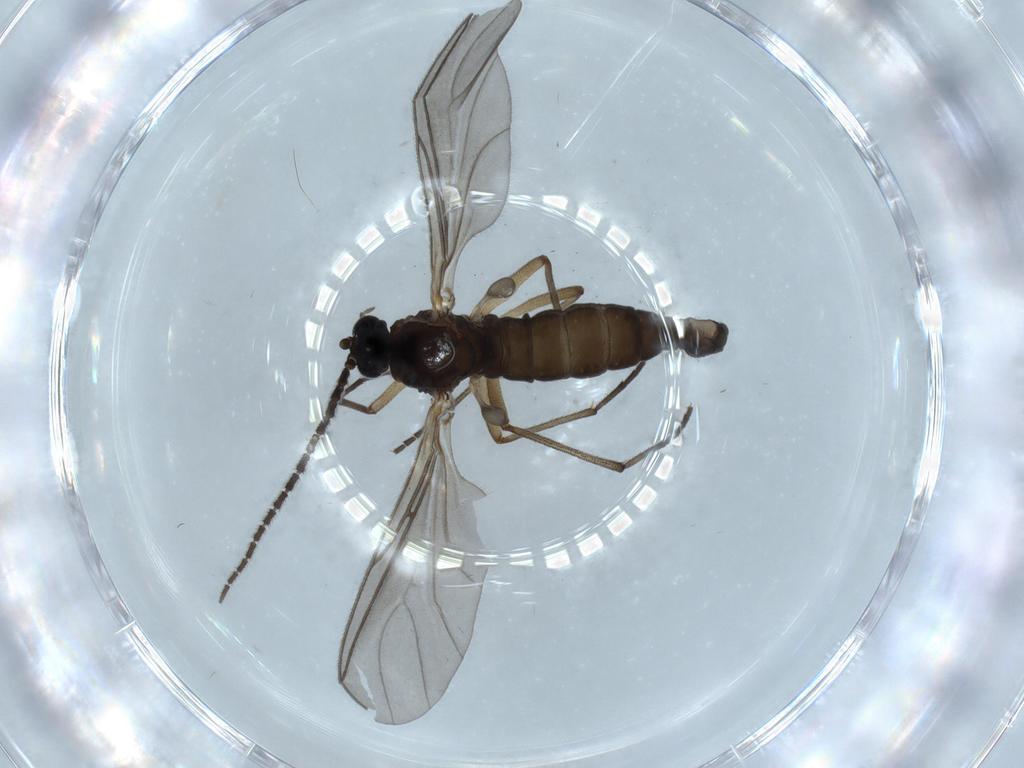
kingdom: Animalia
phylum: Arthropoda
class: Insecta
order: Diptera
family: Sciaridae
